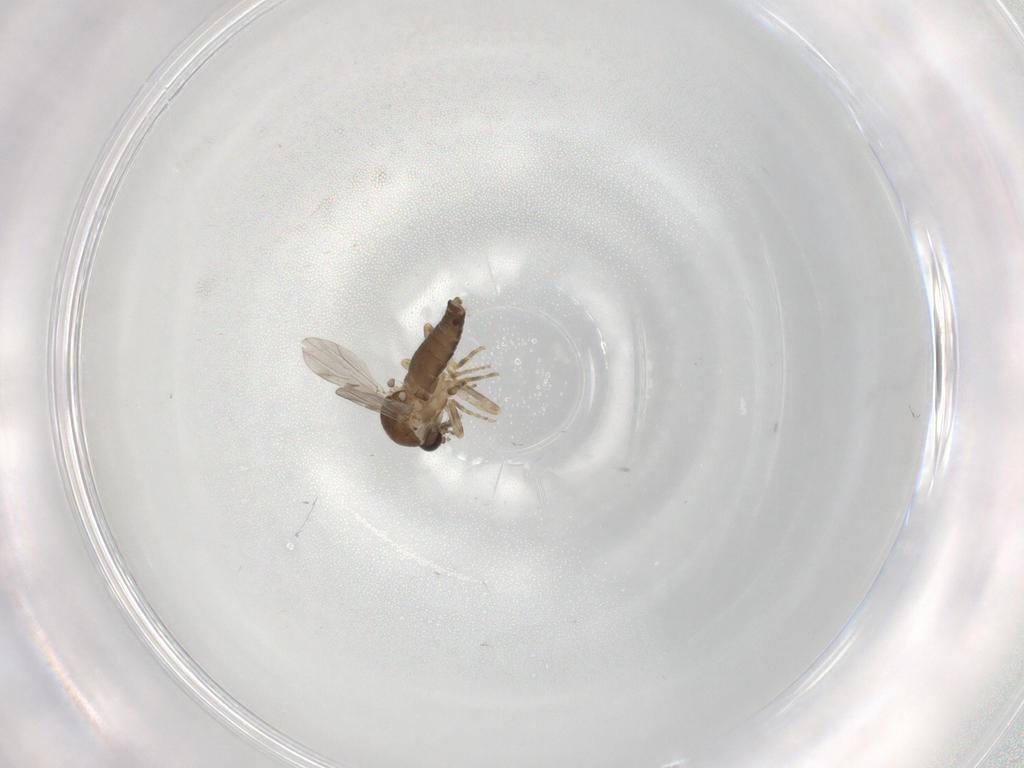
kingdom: Animalia
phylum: Arthropoda
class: Insecta
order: Diptera
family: Ceratopogonidae
